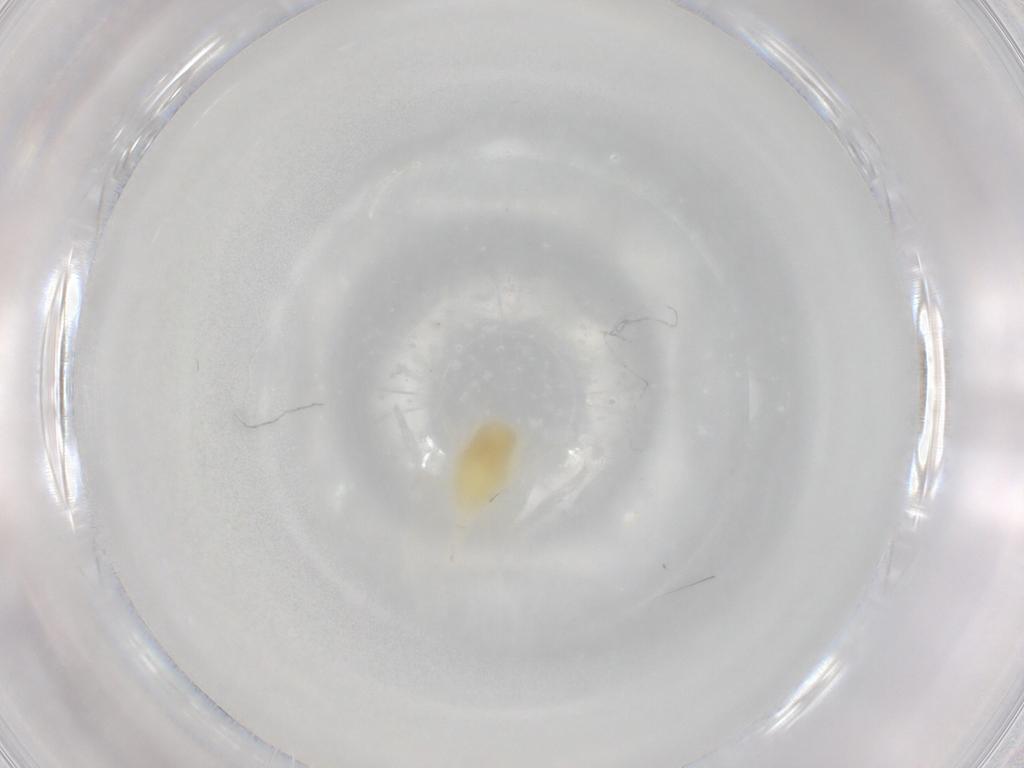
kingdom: Animalia
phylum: Arthropoda
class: Arachnida
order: Trombidiformes
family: Bdellidae
